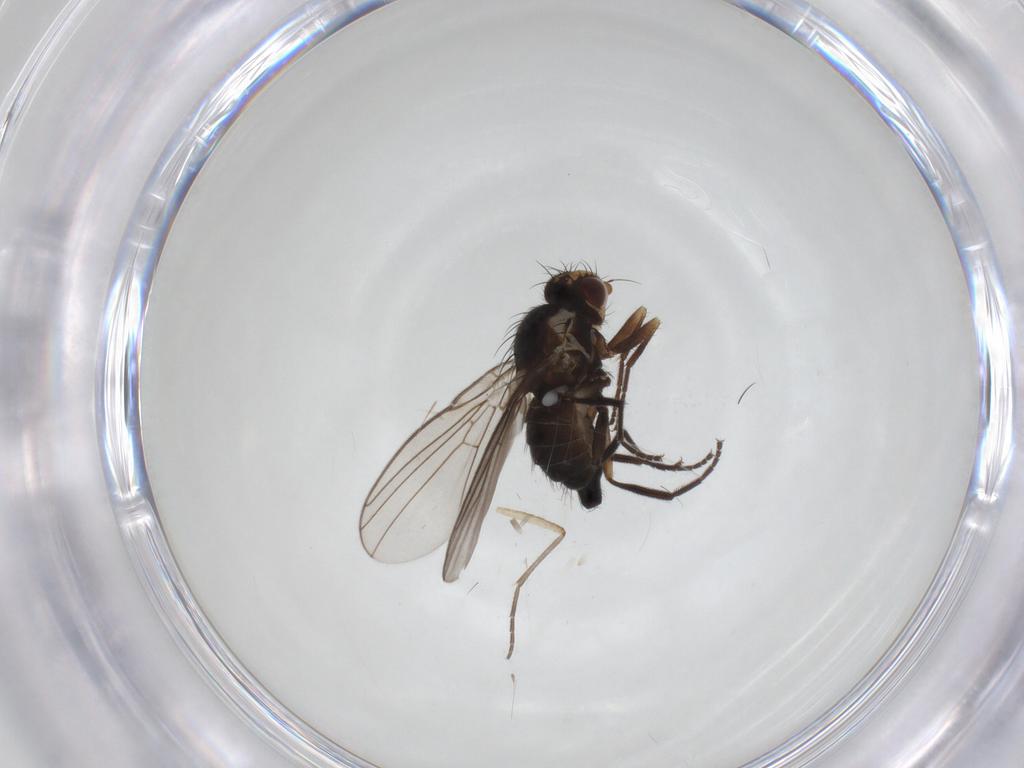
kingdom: Animalia
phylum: Arthropoda
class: Insecta
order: Diptera
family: Agromyzidae
